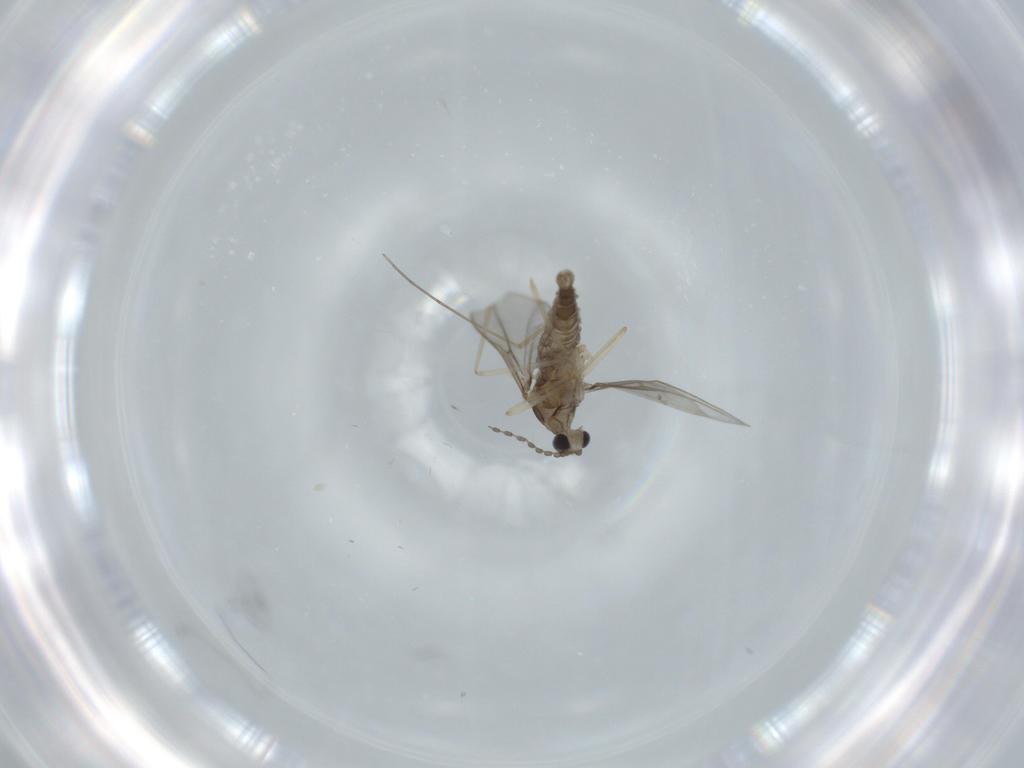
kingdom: Animalia
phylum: Arthropoda
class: Insecta
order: Diptera
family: Cecidomyiidae
